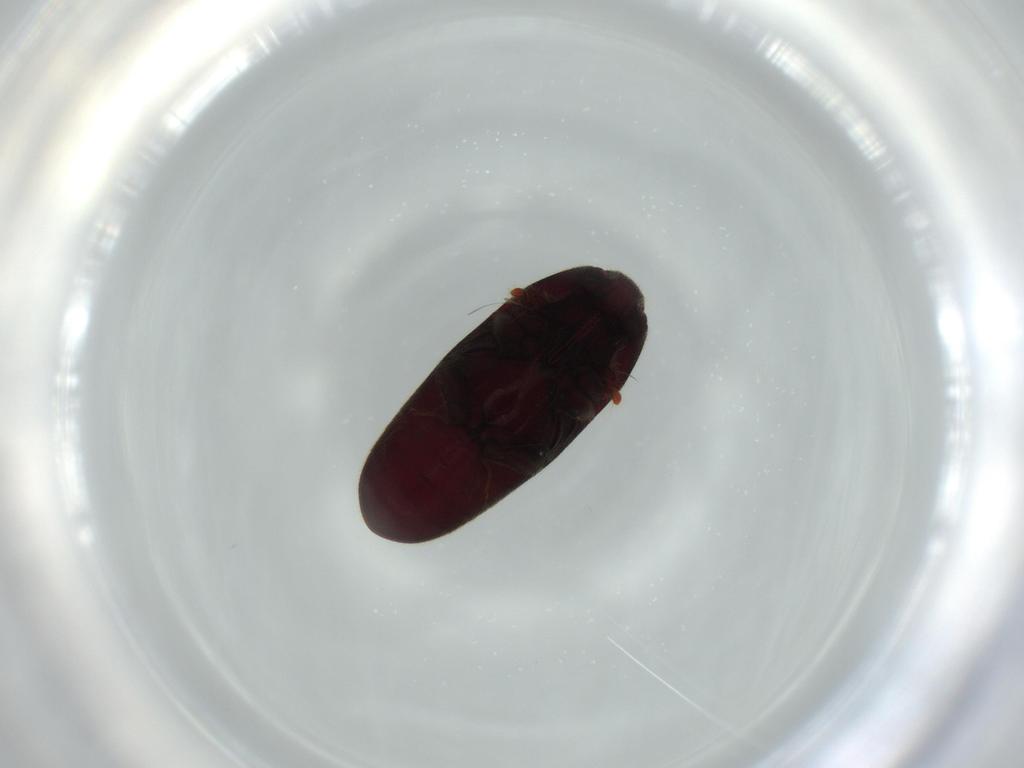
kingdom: Animalia
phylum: Arthropoda
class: Insecta
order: Coleoptera
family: Throscidae
